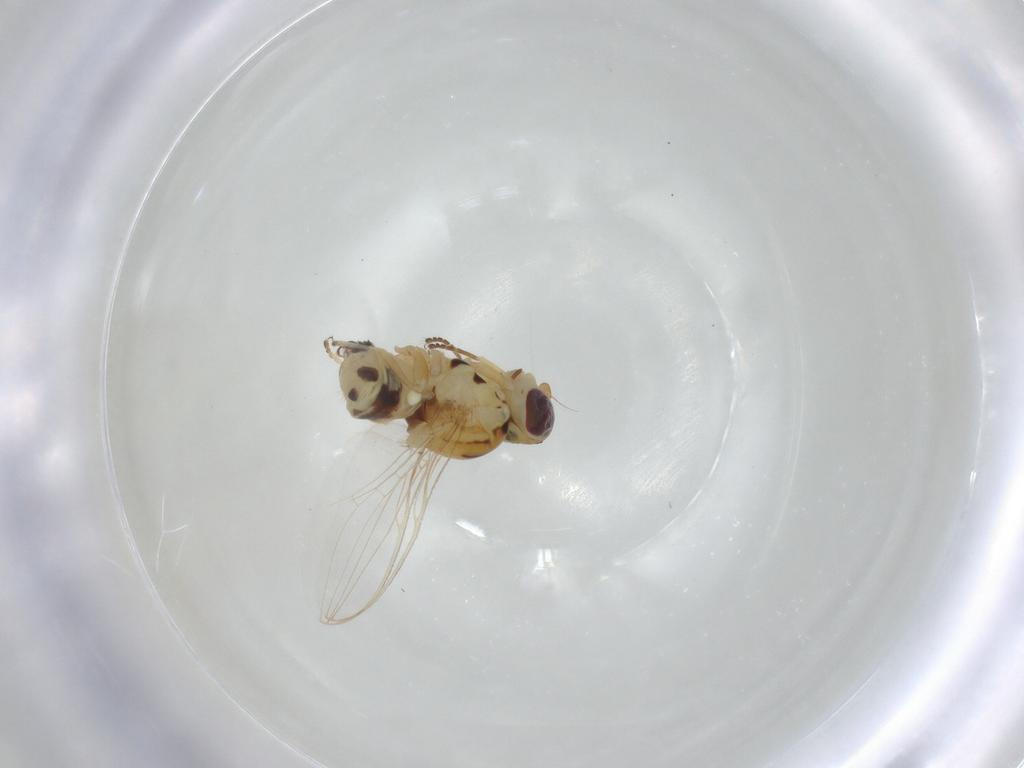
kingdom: Animalia
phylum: Arthropoda
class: Insecta
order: Diptera
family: Asteiidae
